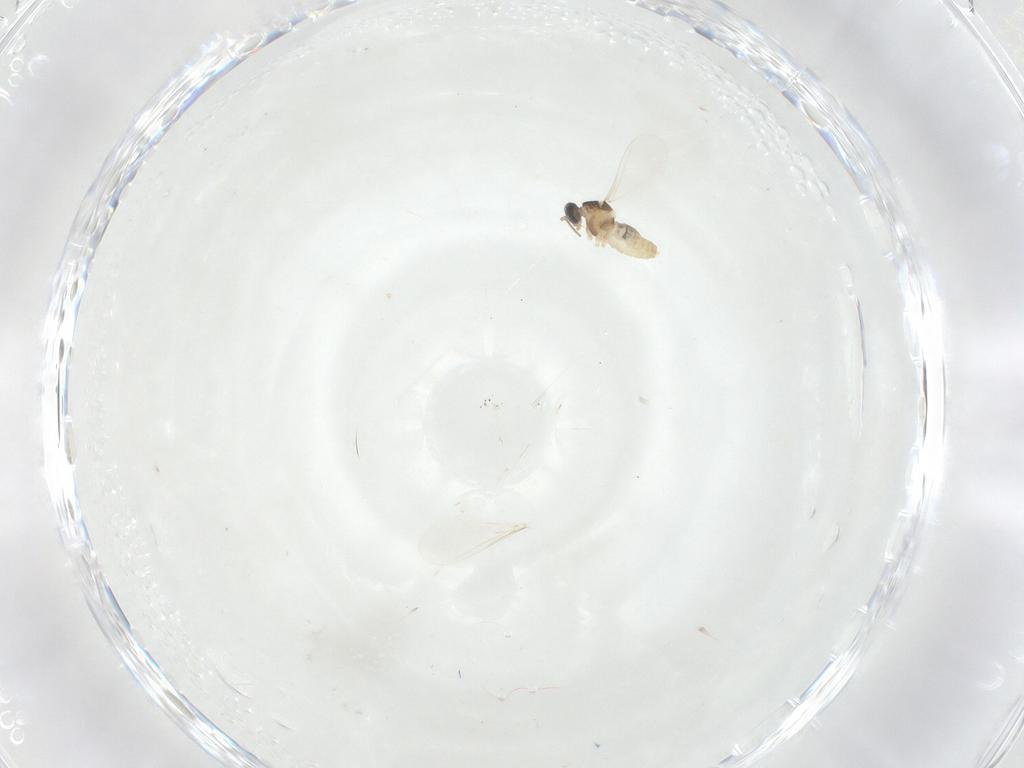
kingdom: Animalia
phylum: Arthropoda
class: Insecta
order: Diptera
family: Cecidomyiidae
